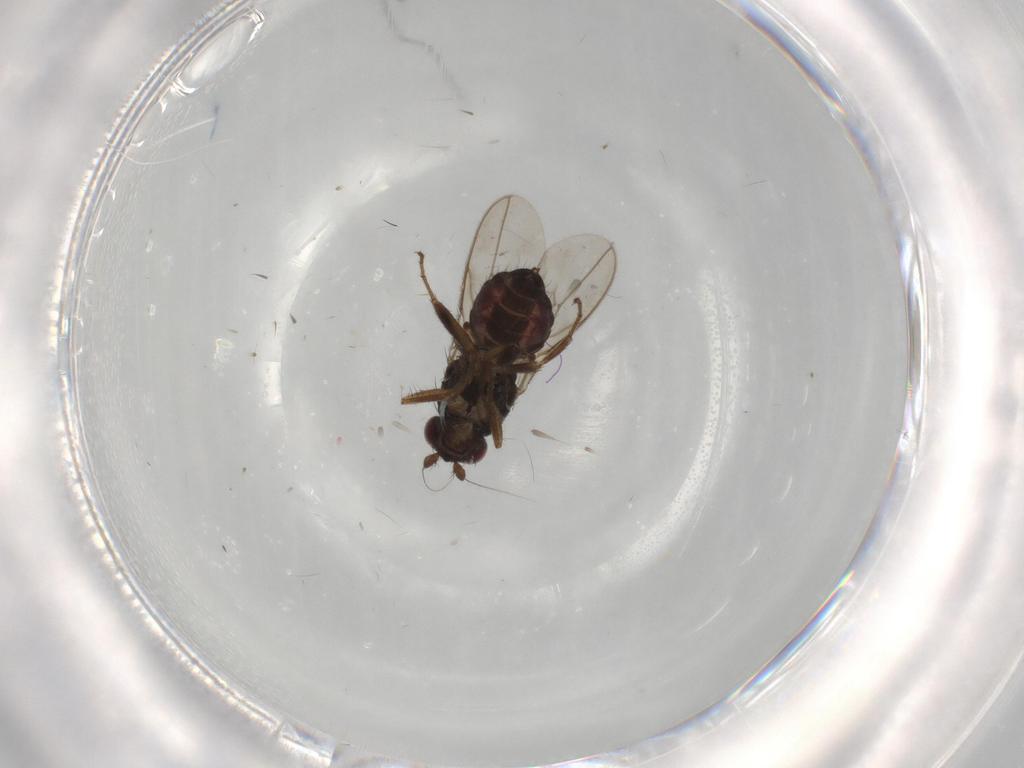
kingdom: Animalia
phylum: Arthropoda
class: Insecta
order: Diptera
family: Sphaeroceridae
